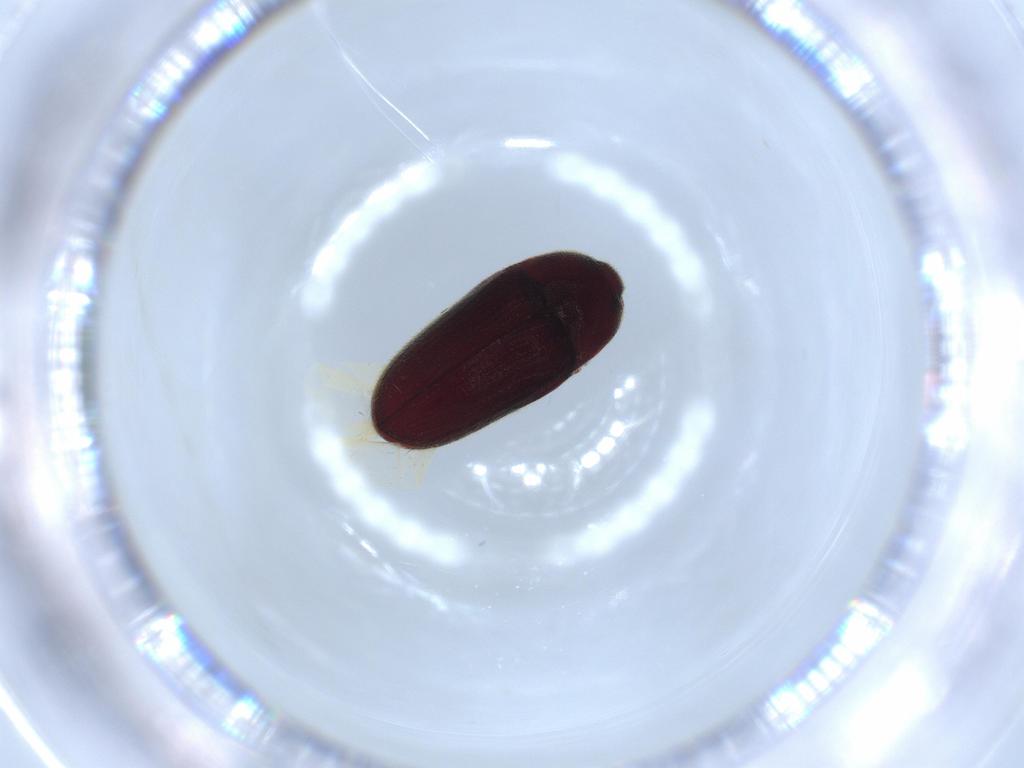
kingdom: Animalia
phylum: Arthropoda
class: Insecta
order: Coleoptera
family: Throscidae
